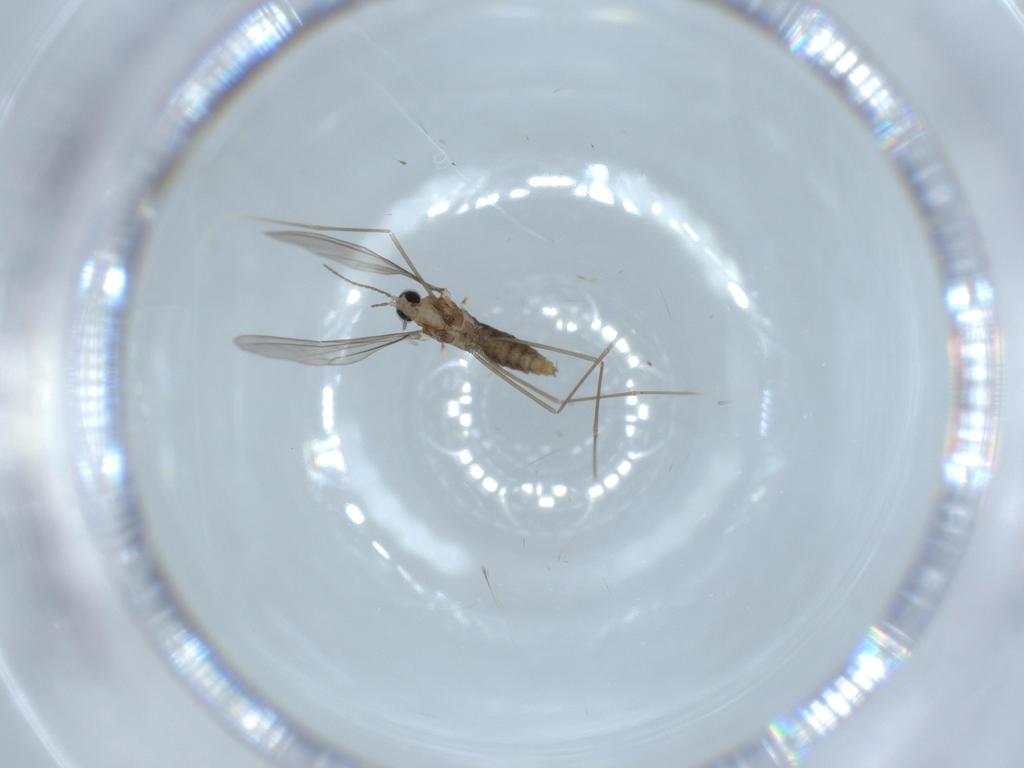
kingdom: Animalia
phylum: Arthropoda
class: Insecta
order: Diptera
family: Cecidomyiidae
